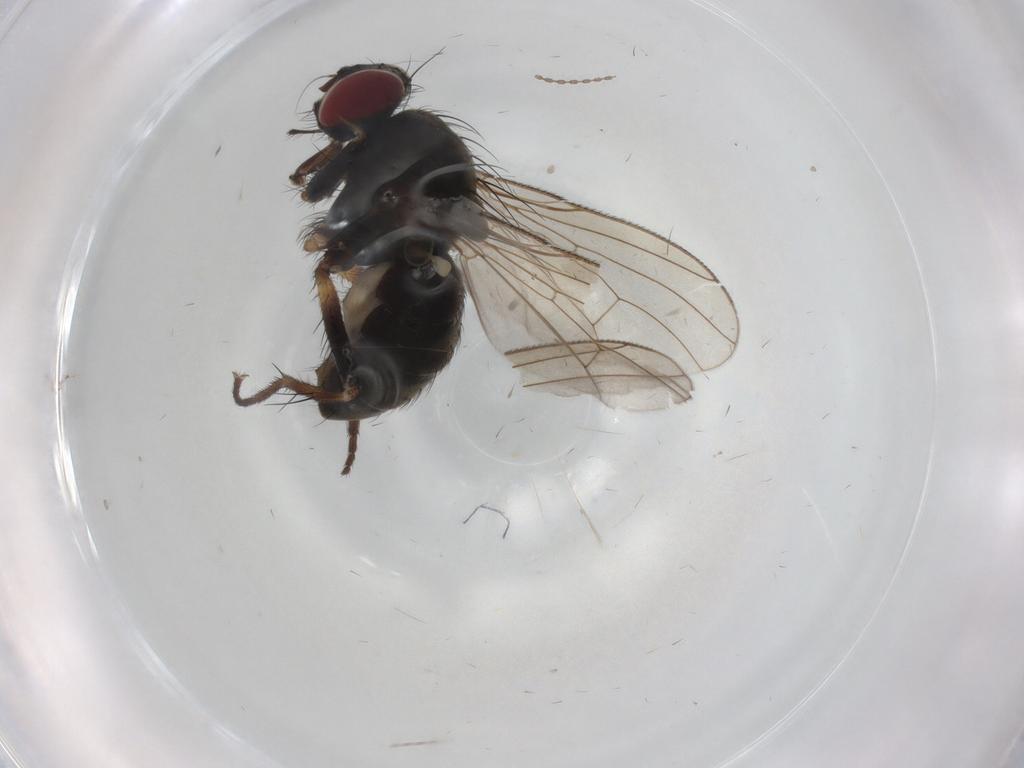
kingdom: Animalia
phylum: Arthropoda
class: Insecta
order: Diptera
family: Muscidae
